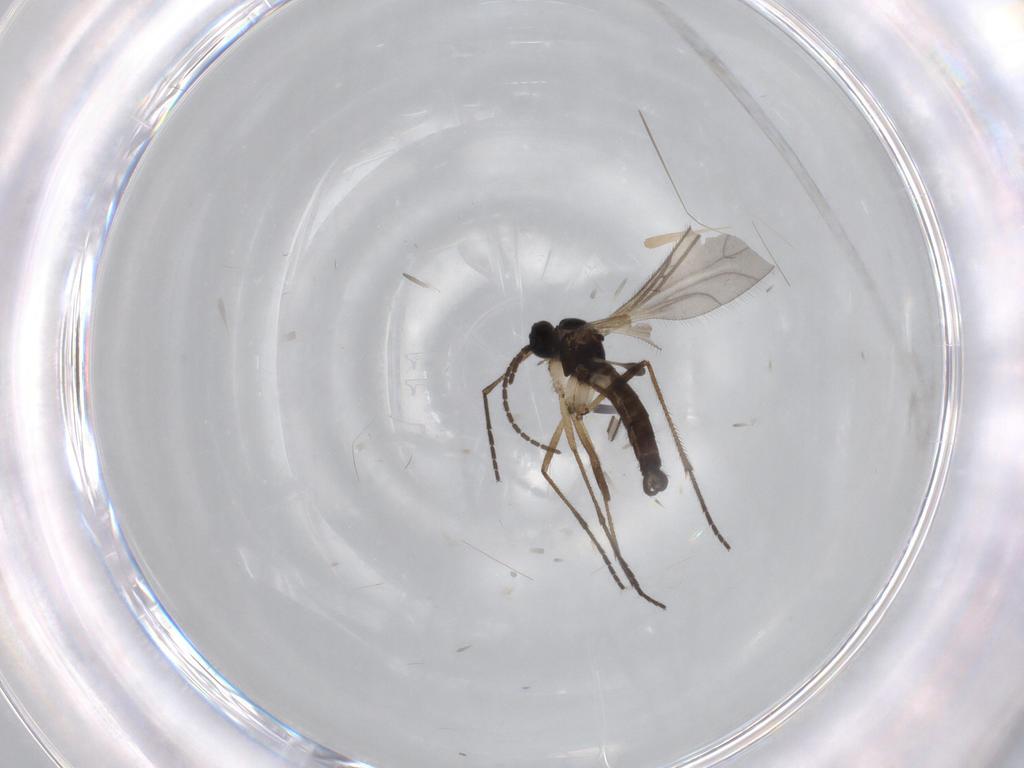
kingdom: Animalia
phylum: Arthropoda
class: Insecta
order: Diptera
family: Sciaridae
